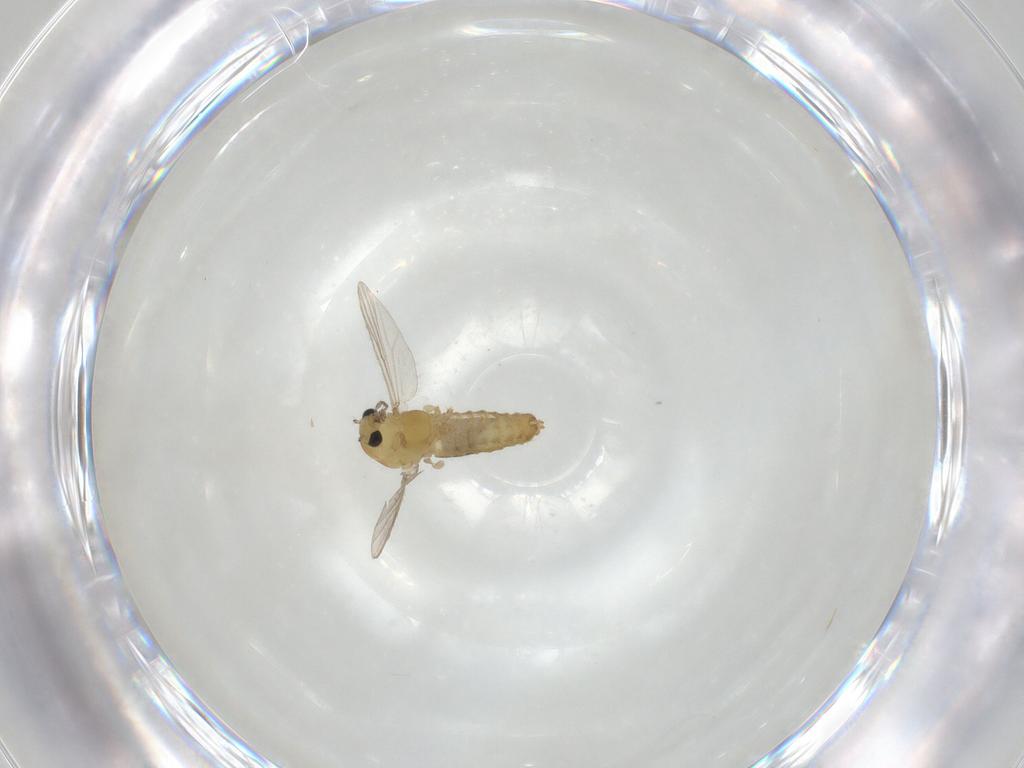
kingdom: Animalia
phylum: Arthropoda
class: Insecta
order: Diptera
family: Chironomidae
